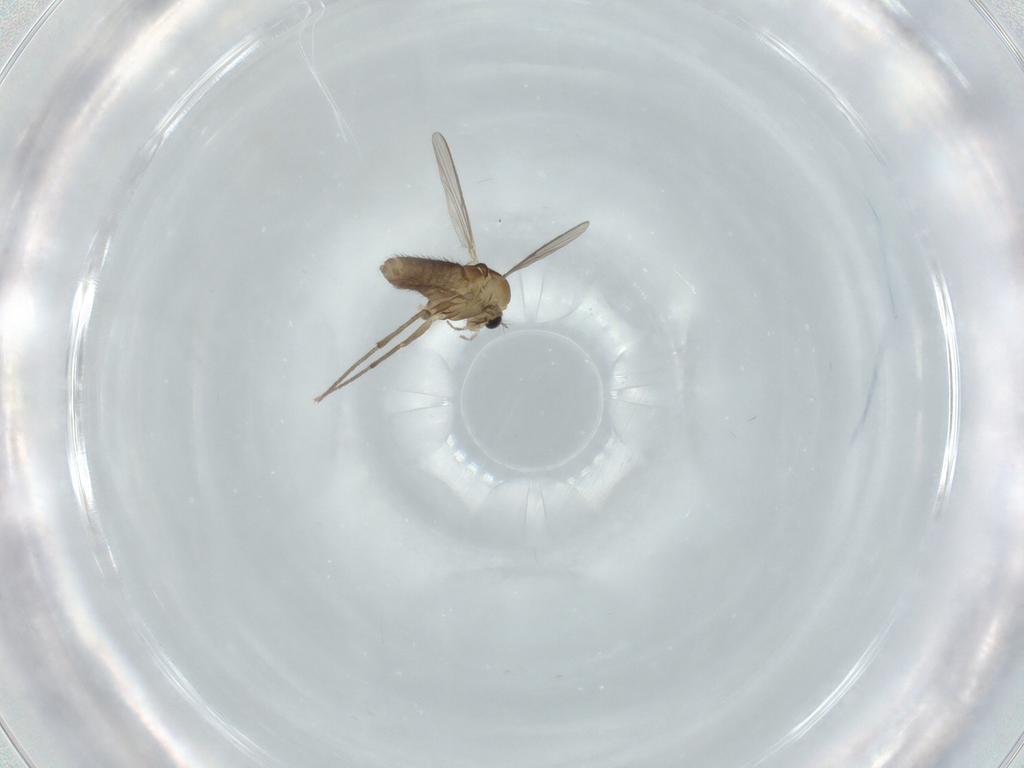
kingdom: Animalia
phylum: Arthropoda
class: Insecta
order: Diptera
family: Chironomidae
